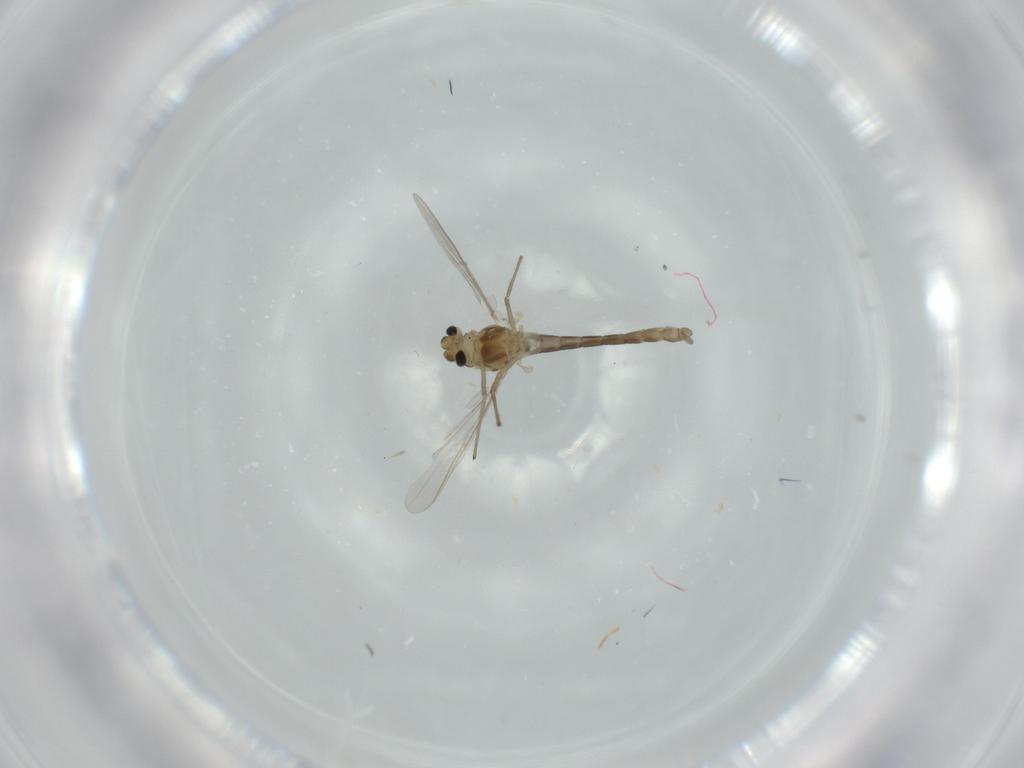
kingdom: Animalia
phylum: Arthropoda
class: Insecta
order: Diptera
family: Chironomidae
